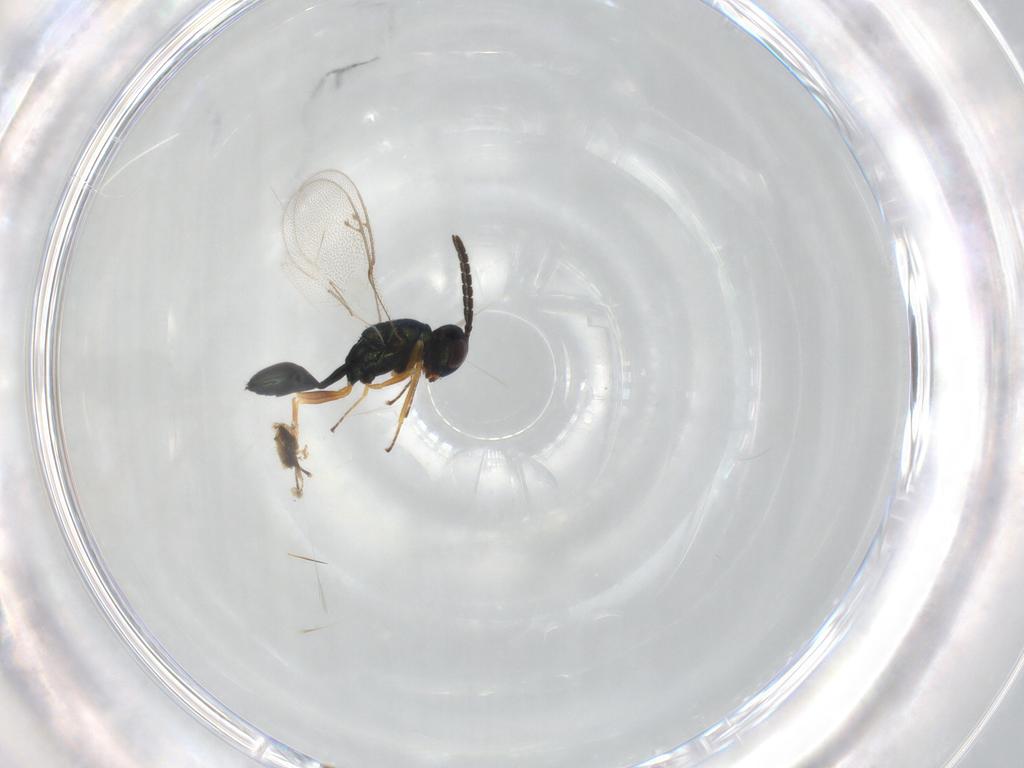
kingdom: Animalia
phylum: Arthropoda
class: Insecta
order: Hymenoptera
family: Pteromalidae
